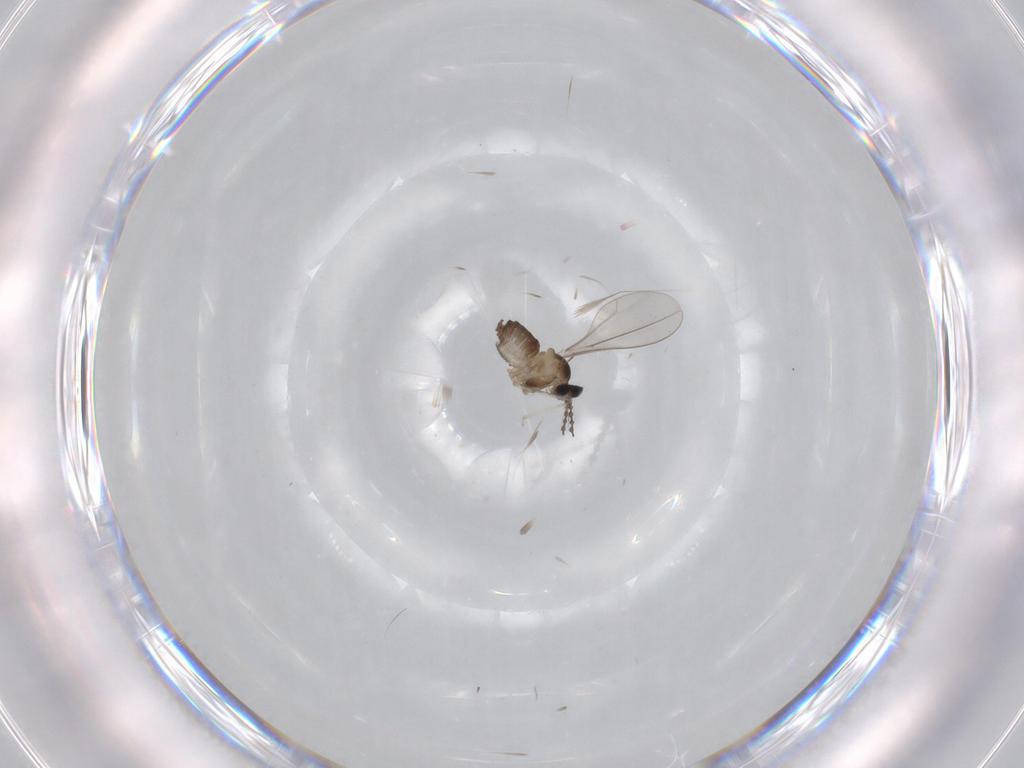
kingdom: Animalia
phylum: Arthropoda
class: Insecta
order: Diptera
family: Cecidomyiidae
